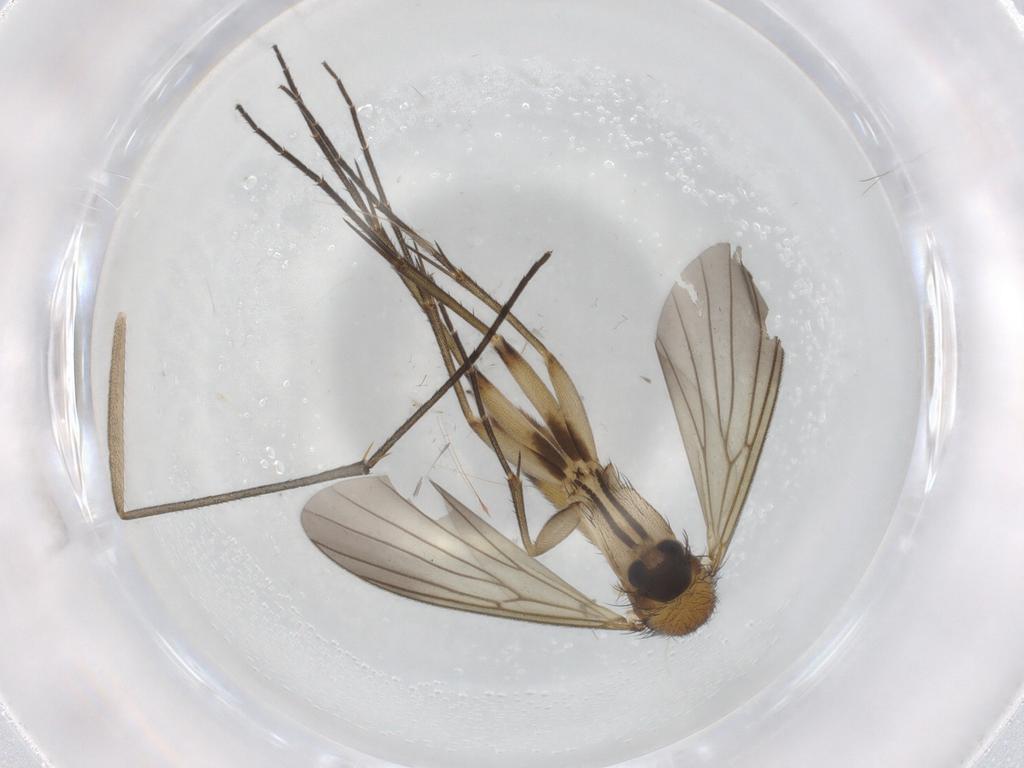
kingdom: Animalia
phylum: Arthropoda
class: Insecta
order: Diptera
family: Mycetophilidae
